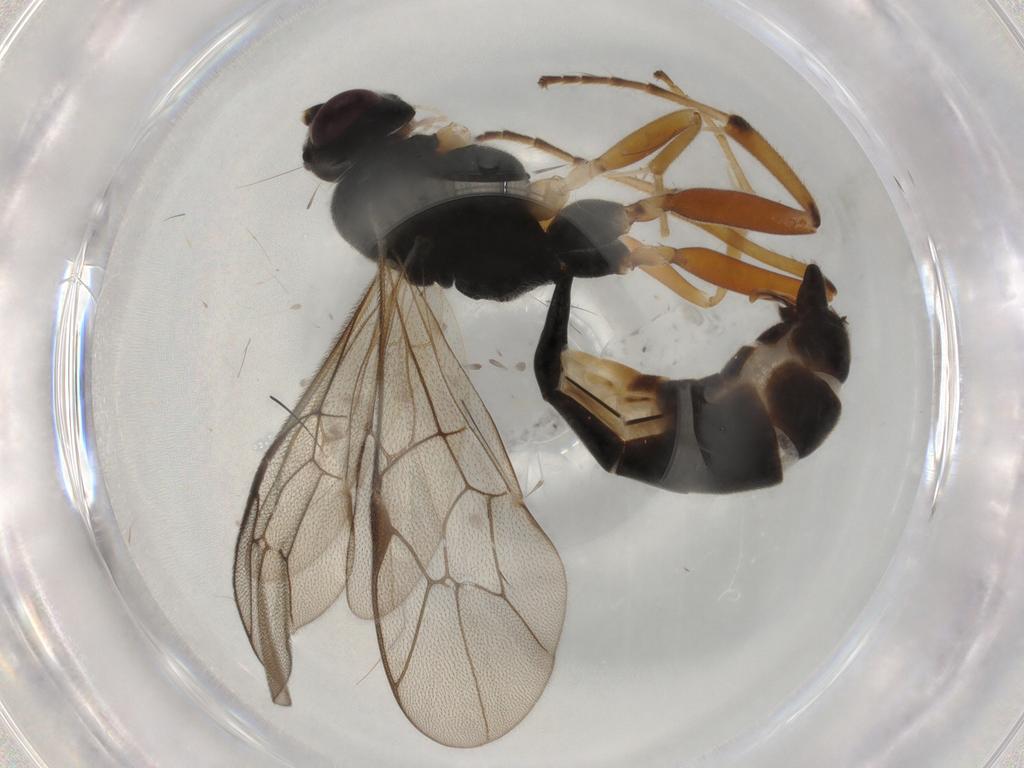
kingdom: Animalia
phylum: Arthropoda
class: Insecta
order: Hymenoptera
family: Ichneumonidae
